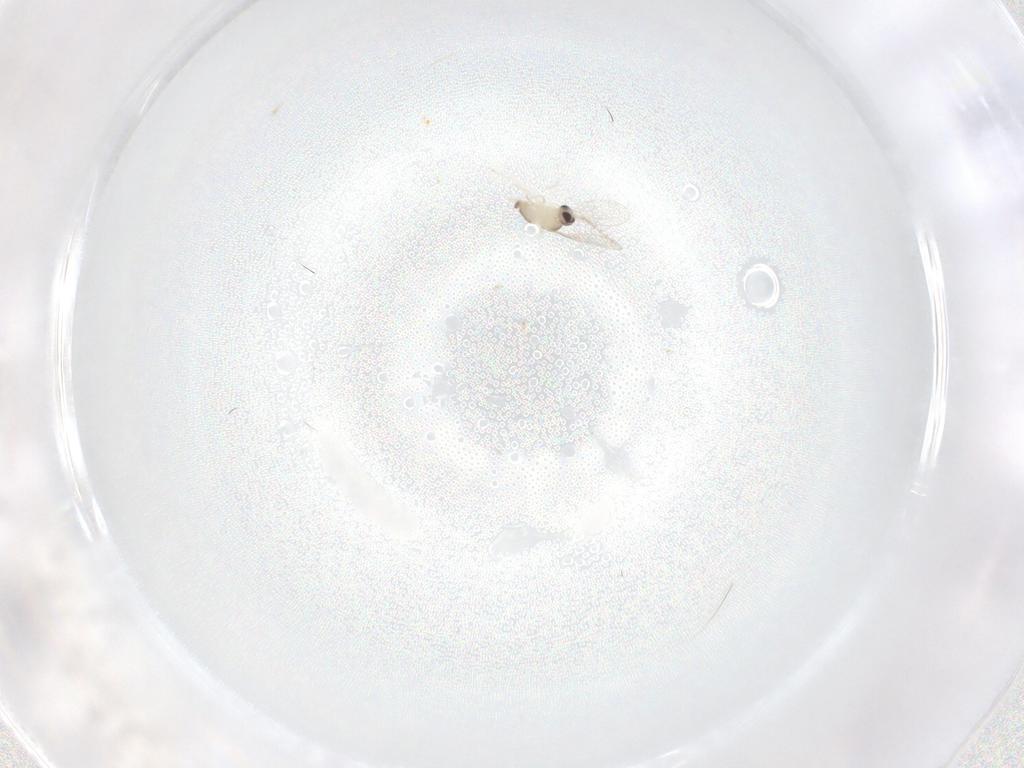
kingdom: Animalia
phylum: Arthropoda
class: Insecta
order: Diptera
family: Cecidomyiidae
